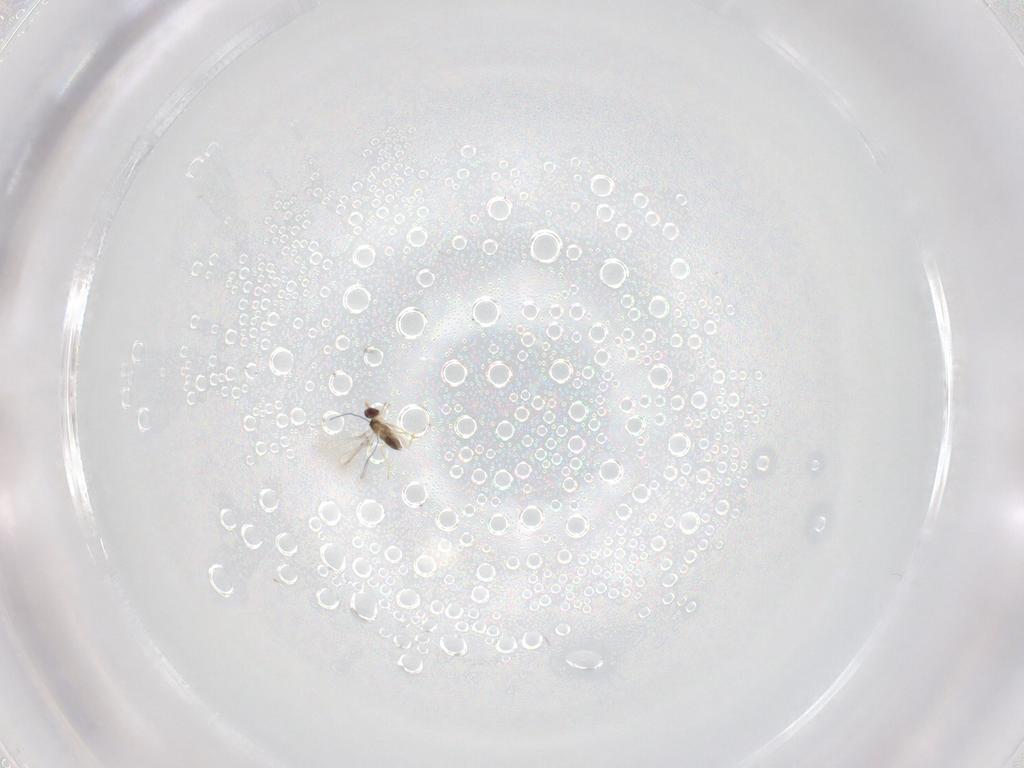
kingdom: Animalia
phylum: Arthropoda
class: Insecta
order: Hymenoptera
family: Mymaridae
